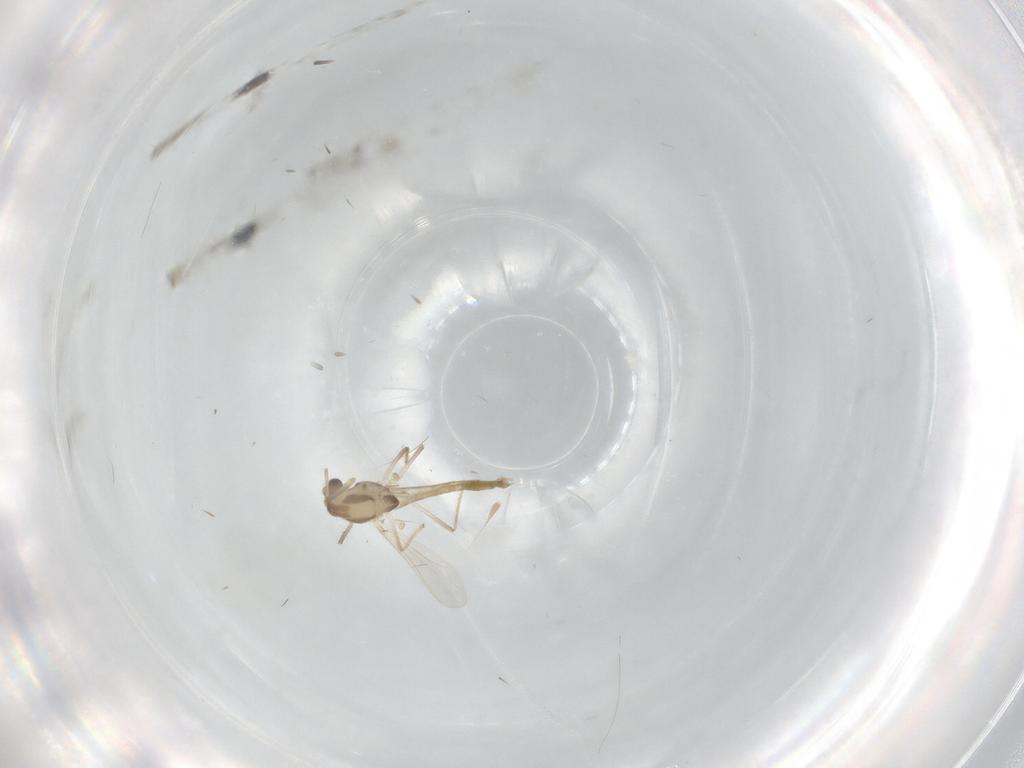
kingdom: Animalia
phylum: Arthropoda
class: Insecta
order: Diptera
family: Chironomidae
